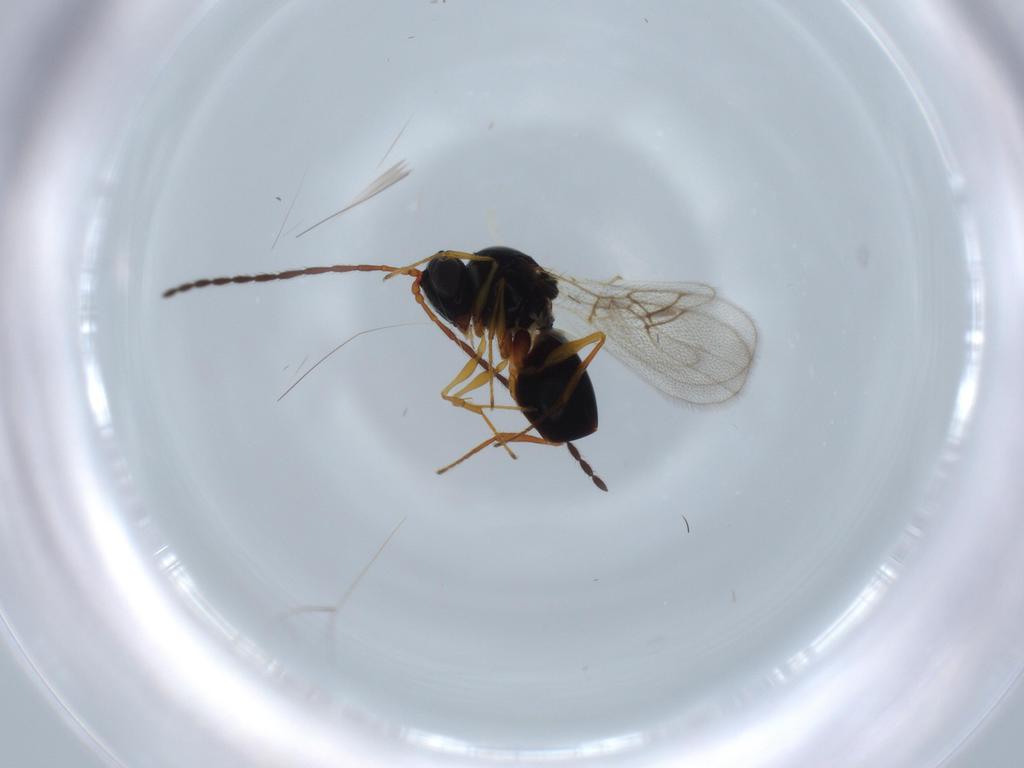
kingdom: Animalia
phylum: Arthropoda
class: Insecta
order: Hymenoptera
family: Figitidae
